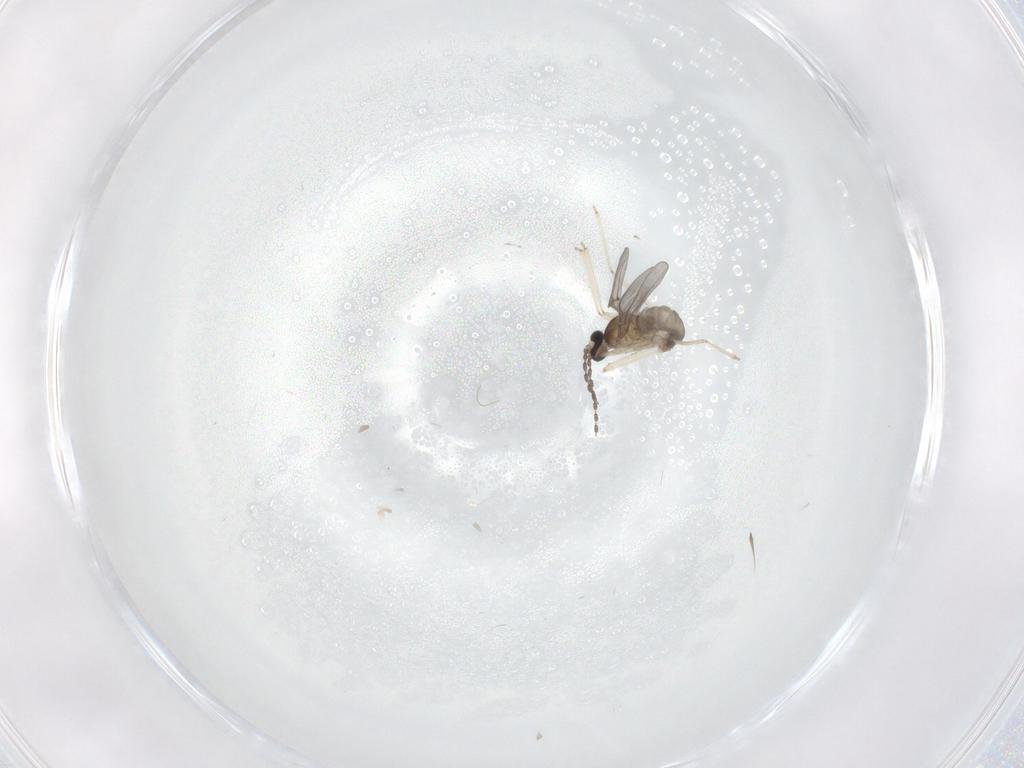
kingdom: Animalia
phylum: Arthropoda
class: Insecta
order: Diptera
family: Cecidomyiidae
